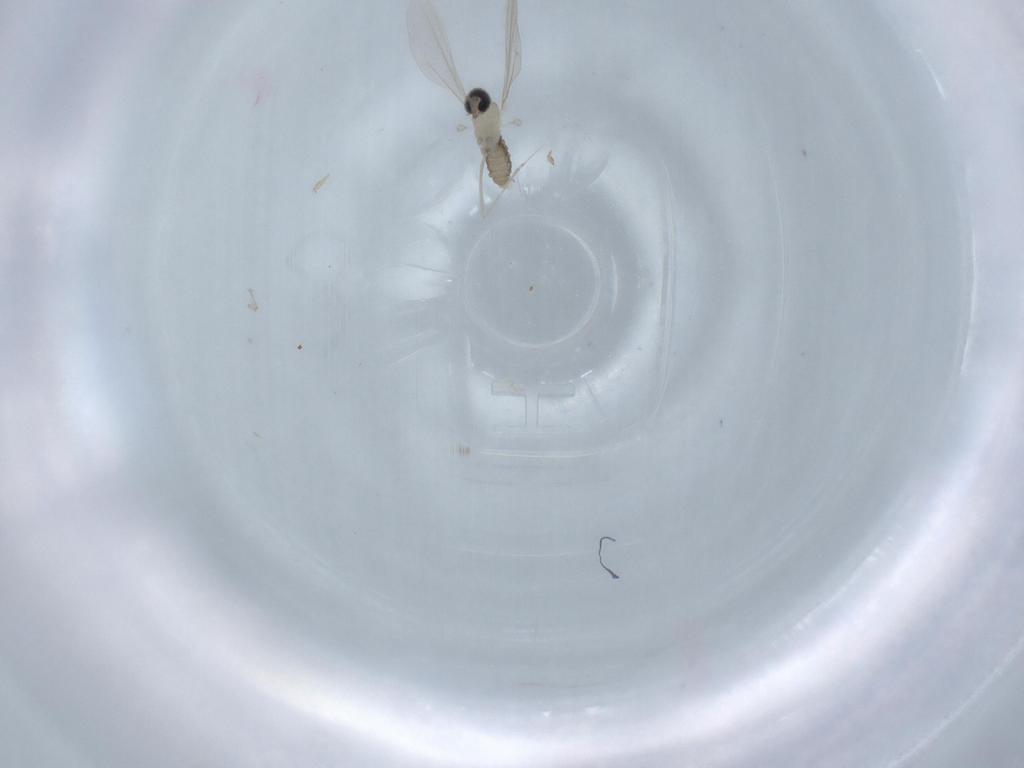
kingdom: Animalia
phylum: Arthropoda
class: Insecta
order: Diptera
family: Cecidomyiidae
